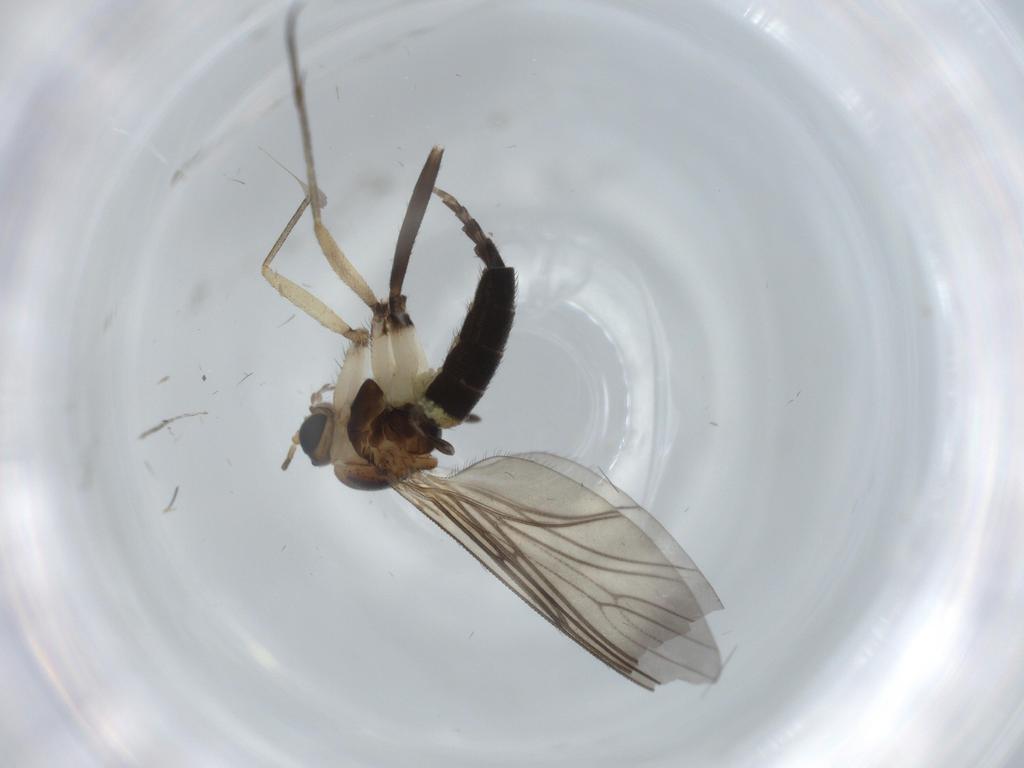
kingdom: Animalia
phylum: Arthropoda
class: Insecta
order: Diptera
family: Sciaridae
